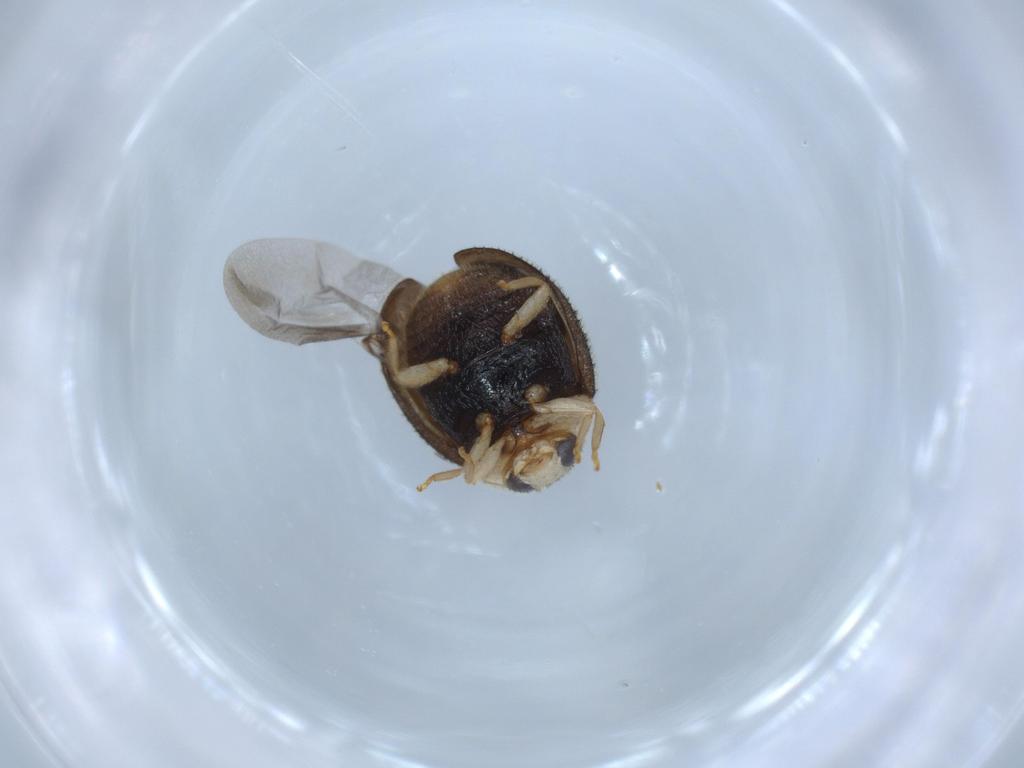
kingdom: Animalia
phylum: Arthropoda
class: Insecta
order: Coleoptera
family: Coccinellidae
